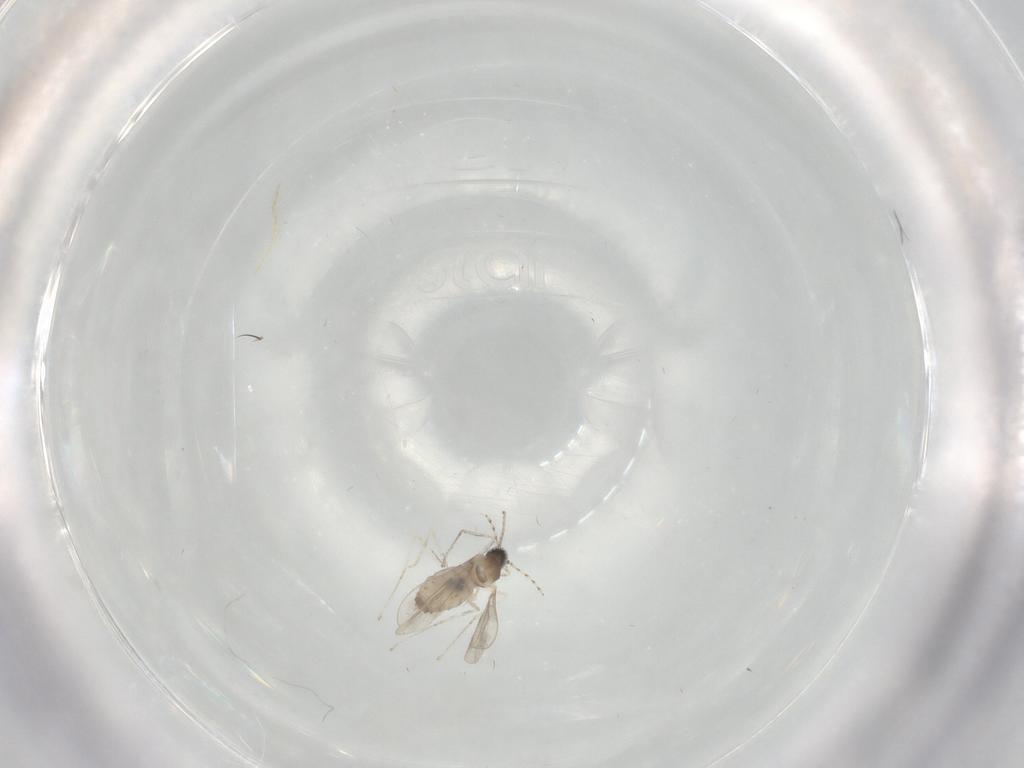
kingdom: Animalia
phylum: Arthropoda
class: Insecta
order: Diptera
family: Cecidomyiidae
